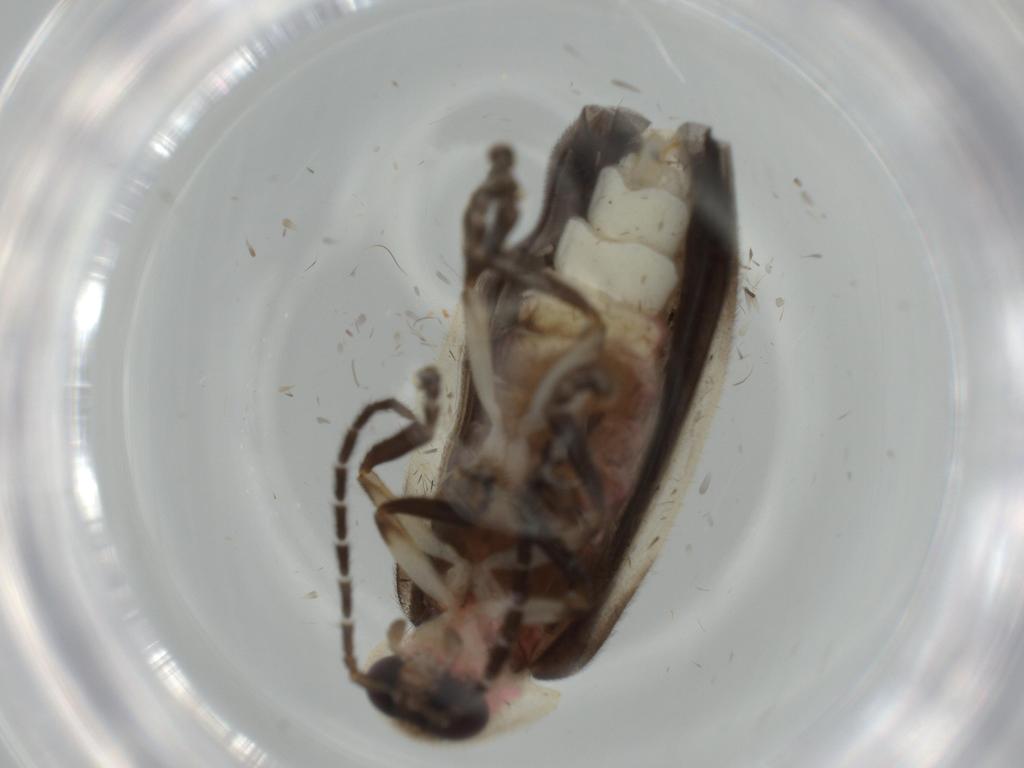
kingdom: Animalia
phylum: Arthropoda
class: Insecta
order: Coleoptera
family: Lampyridae
